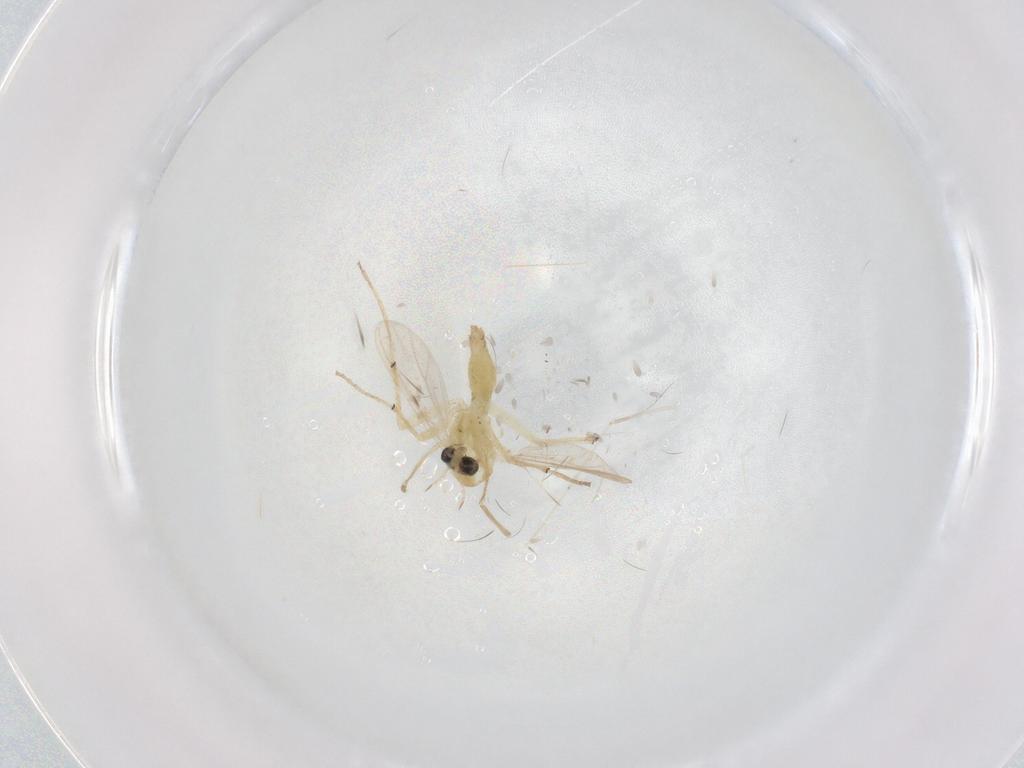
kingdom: Animalia
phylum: Arthropoda
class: Insecta
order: Diptera
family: Chironomidae
